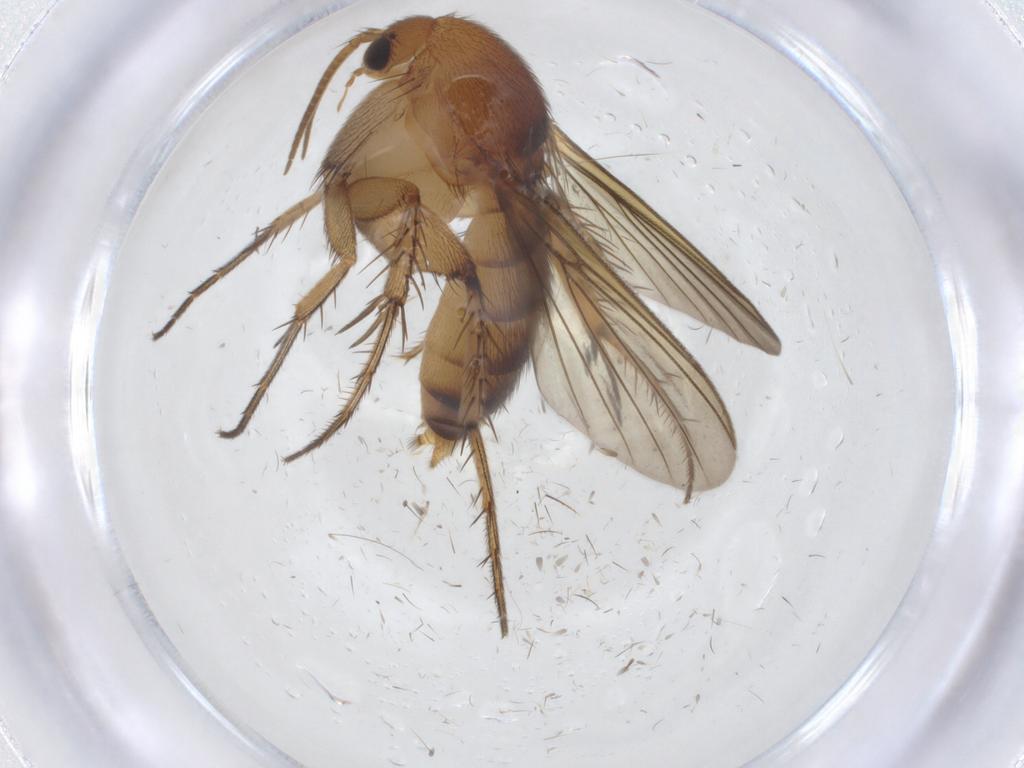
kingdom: Animalia
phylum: Arthropoda
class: Insecta
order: Diptera
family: Mycetophilidae
